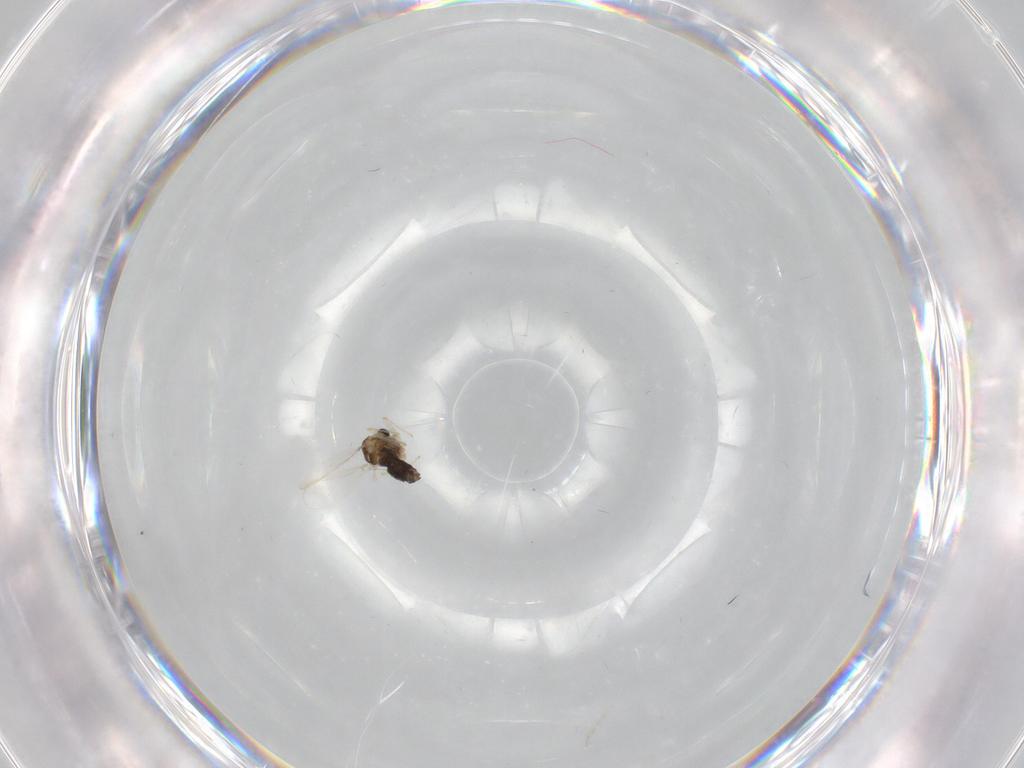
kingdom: Animalia
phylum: Arthropoda
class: Insecta
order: Diptera
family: Chironomidae
